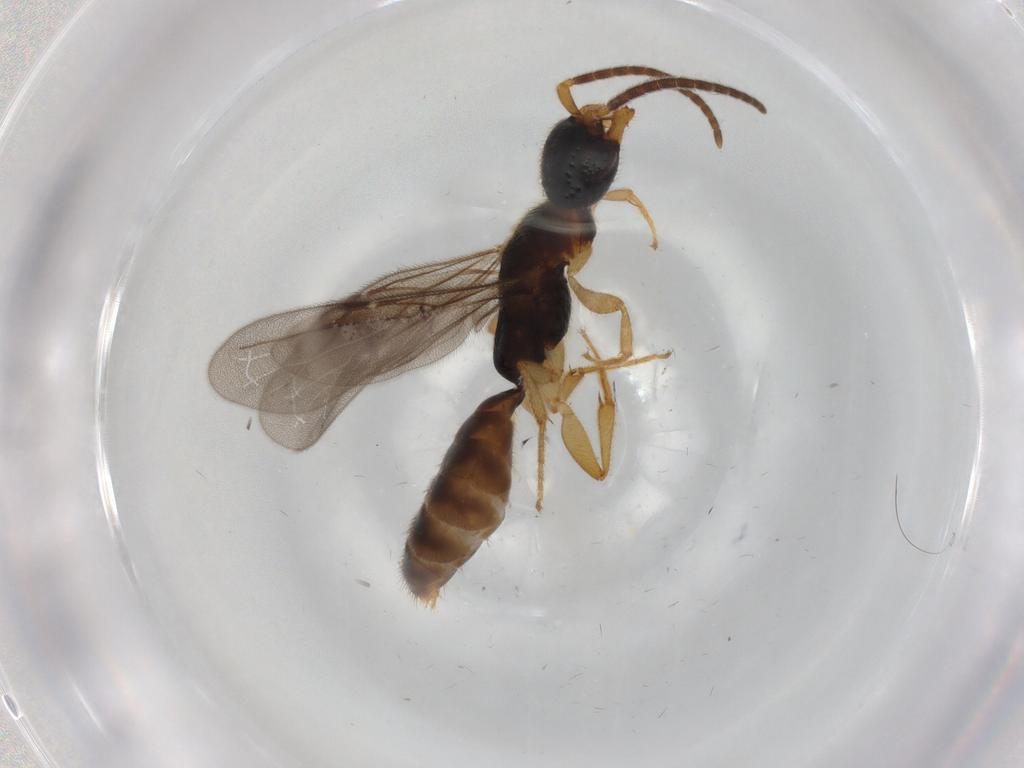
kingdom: Animalia
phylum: Arthropoda
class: Insecta
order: Hymenoptera
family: Bethylidae
